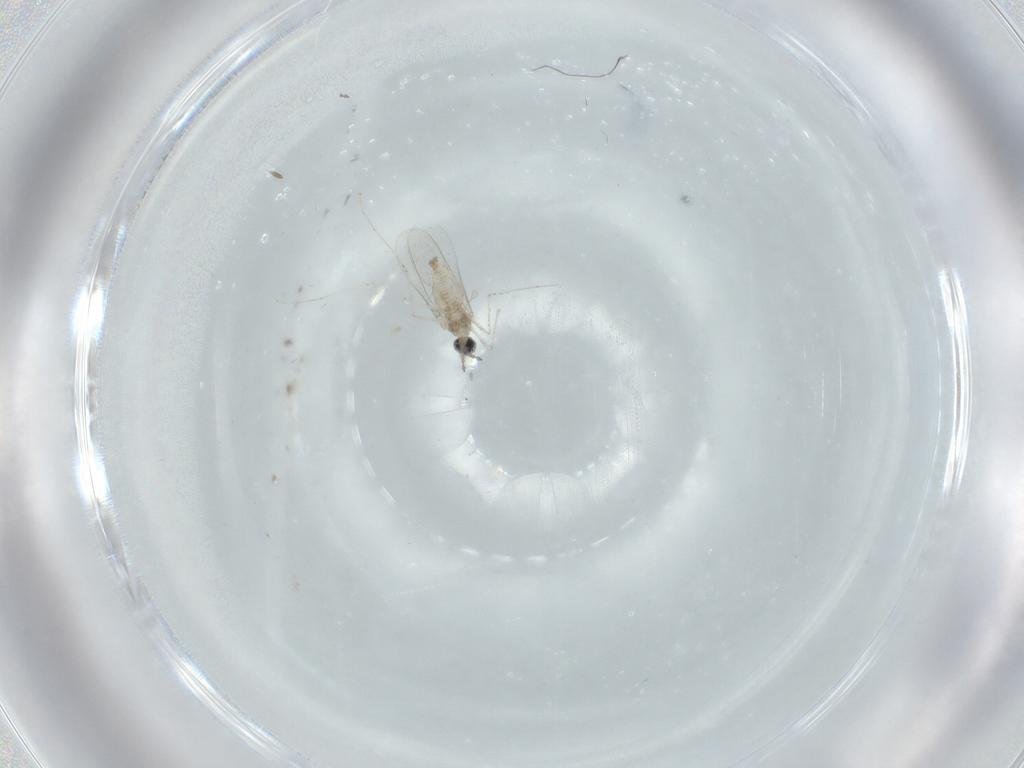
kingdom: Animalia
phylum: Arthropoda
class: Insecta
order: Diptera
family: Cecidomyiidae
